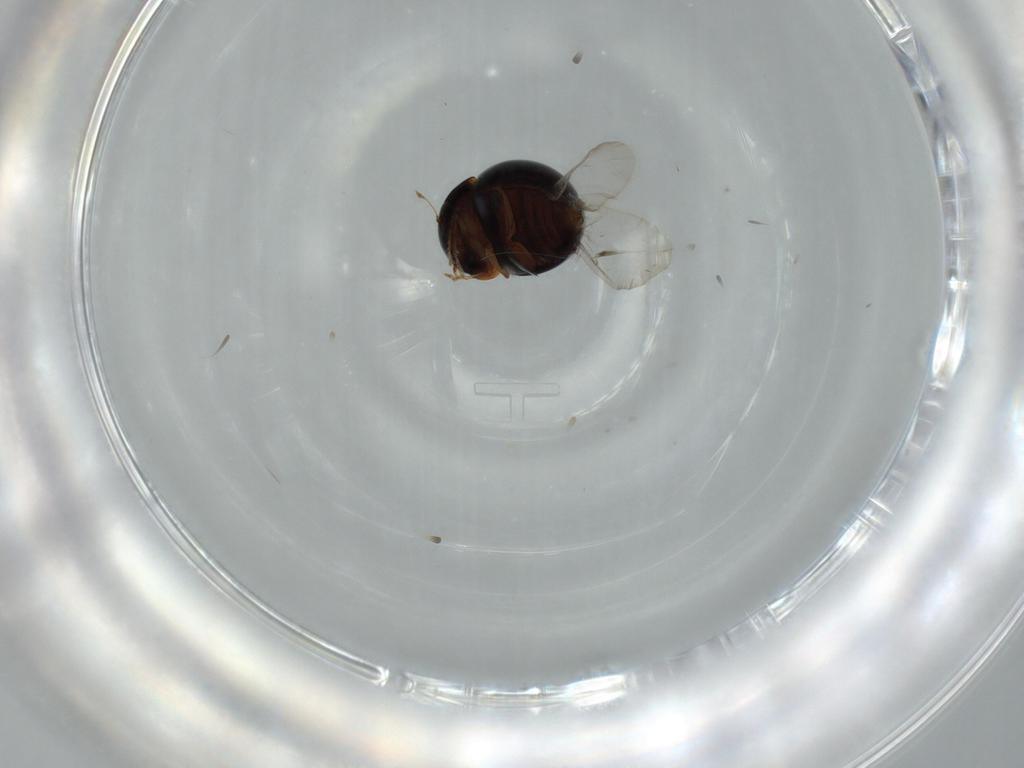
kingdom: Animalia
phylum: Arthropoda
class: Insecta
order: Coleoptera
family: Clambidae
